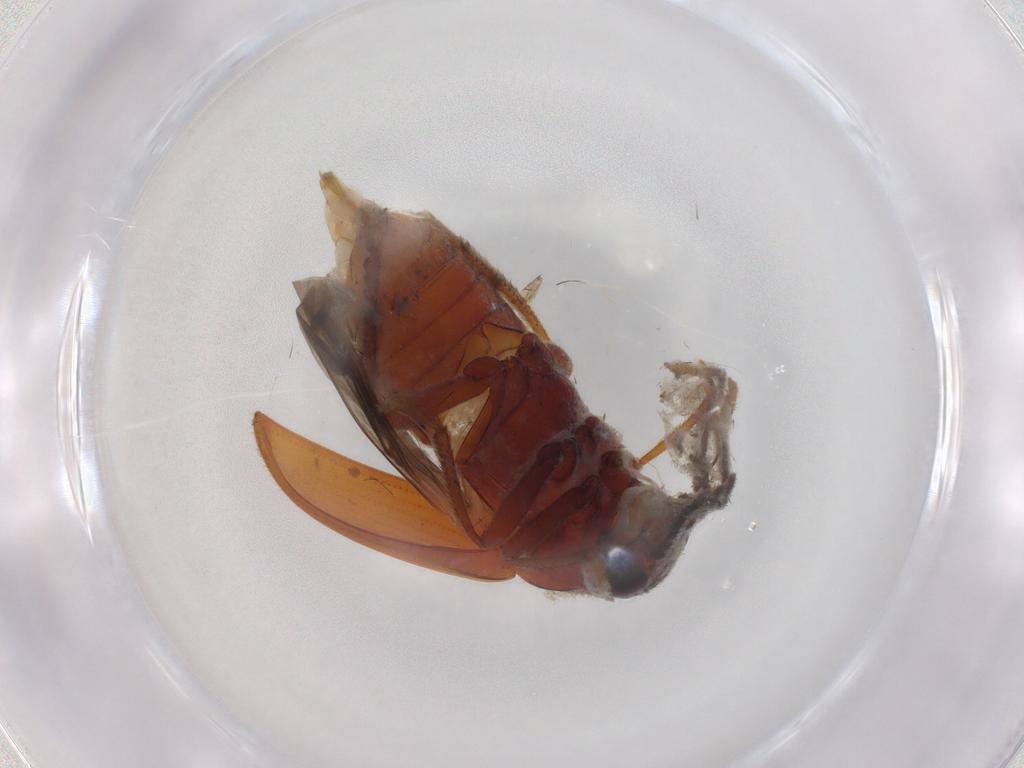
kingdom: Animalia
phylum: Arthropoda
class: Insecta
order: Coleoptera
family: Ptilodactylidae
